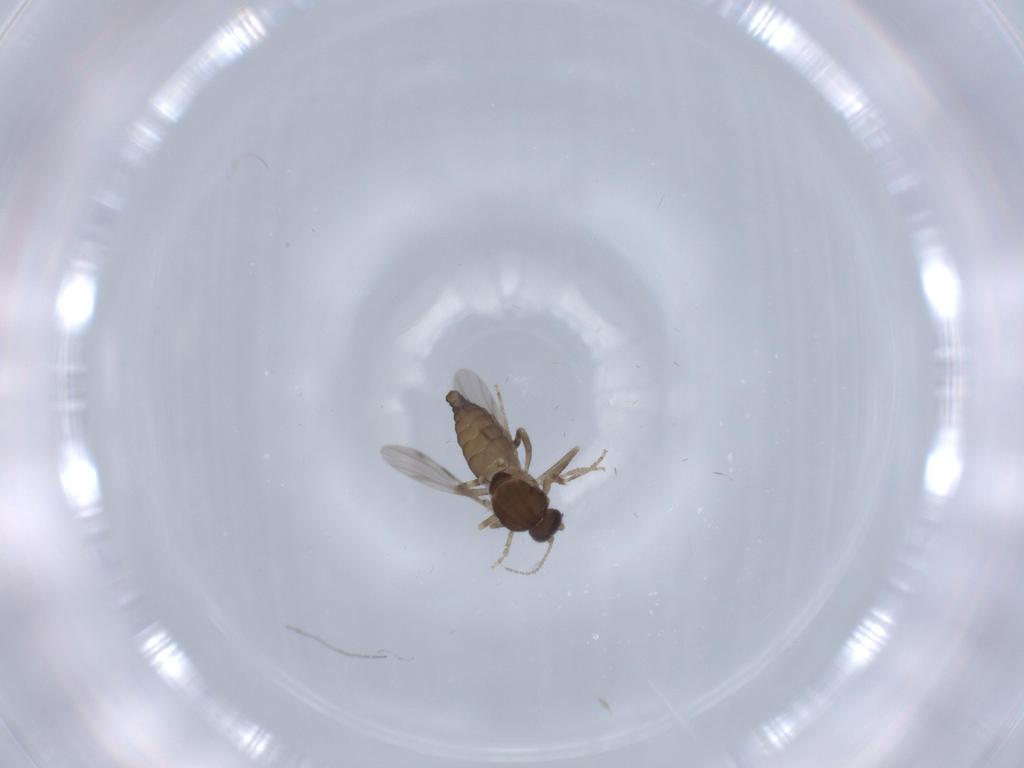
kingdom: Animalia
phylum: Arthropoda
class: Insecta
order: Diptera
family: Ceratopogonidae
